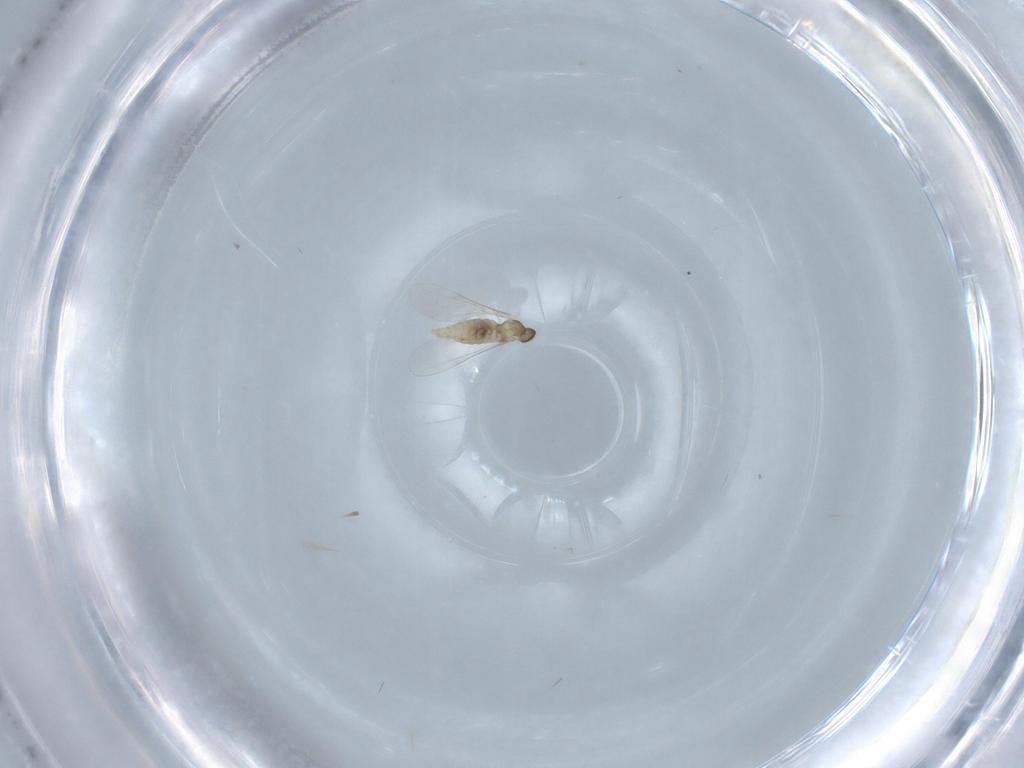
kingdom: Animalia
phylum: Arthropoda
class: Insecta
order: Diptera
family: Cecidomyiidae
